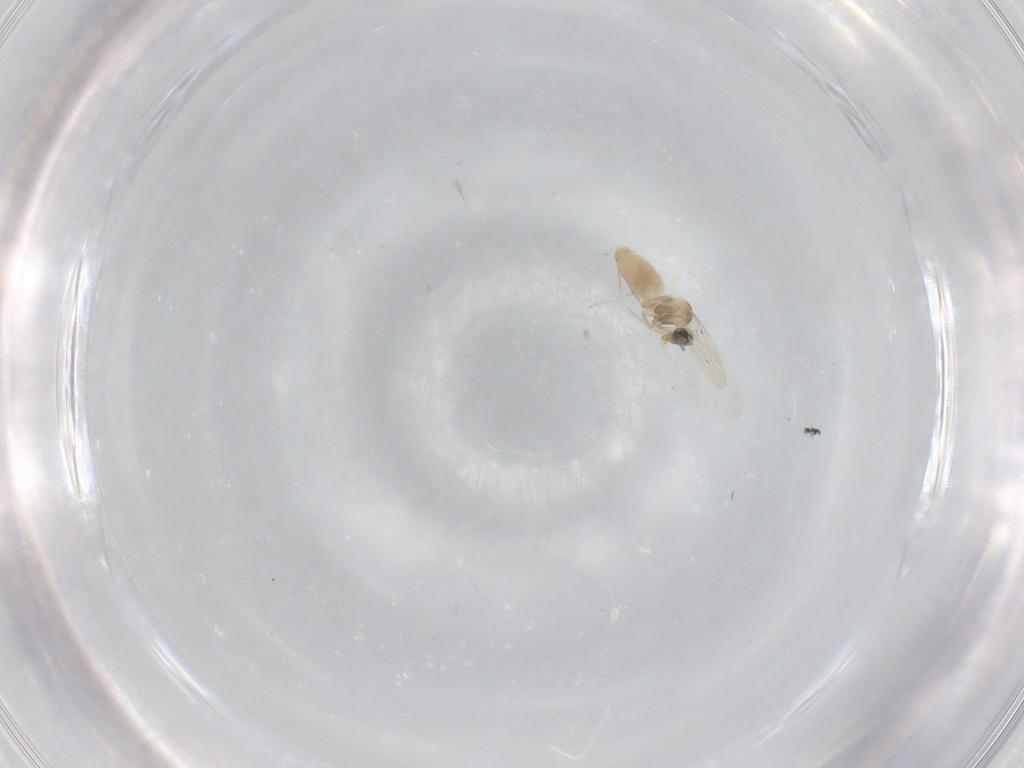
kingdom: Animalia
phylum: Arthropoda
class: Insecta
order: Diptera
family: Cecidomyiidae
